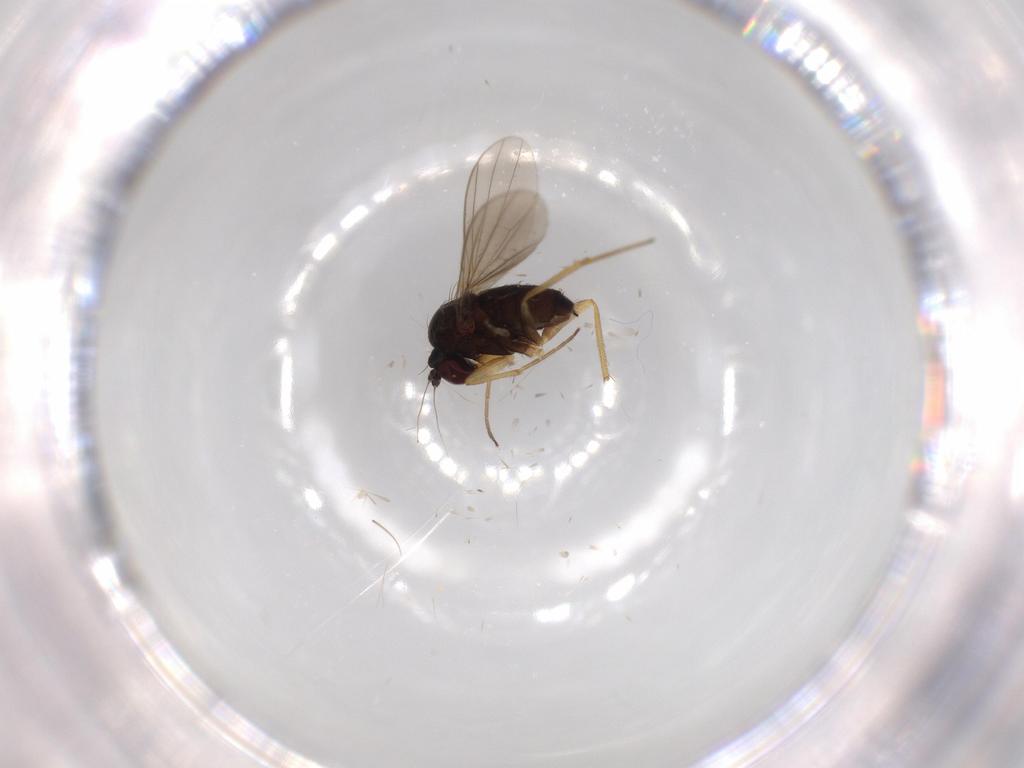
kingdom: Animalia
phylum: Arthropoda
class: Insecta
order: Diptera
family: Dolichopodidae
